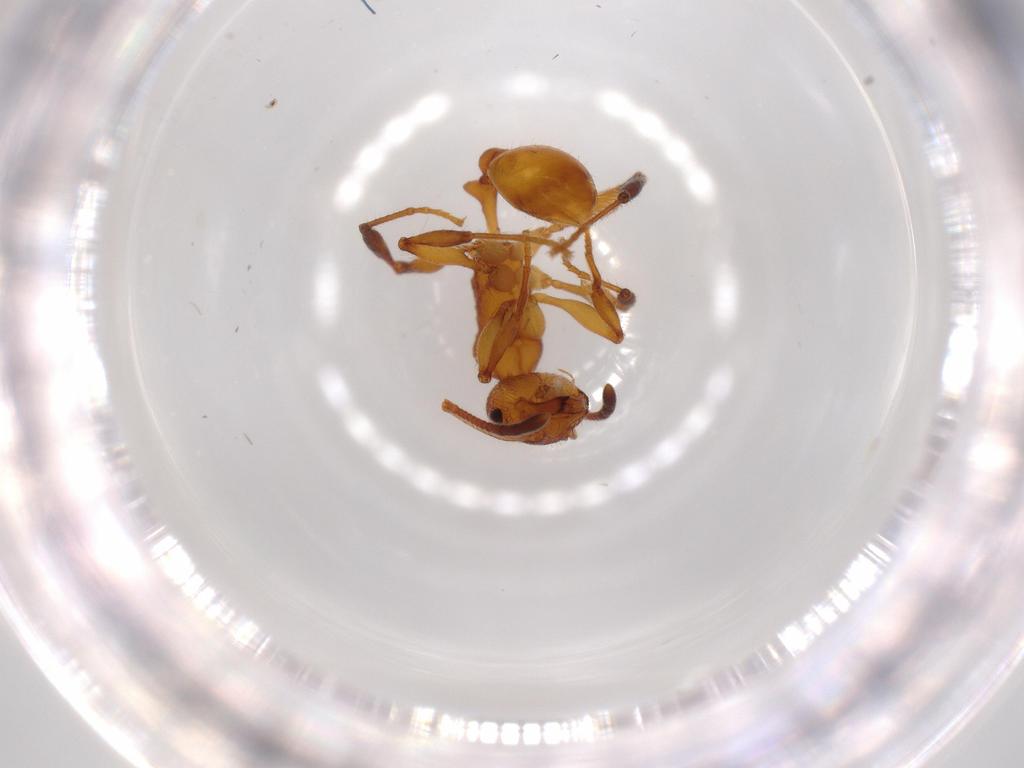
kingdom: Animalia
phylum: Arthropoda
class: Insecta
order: Hymenoptera
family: Formicidae
